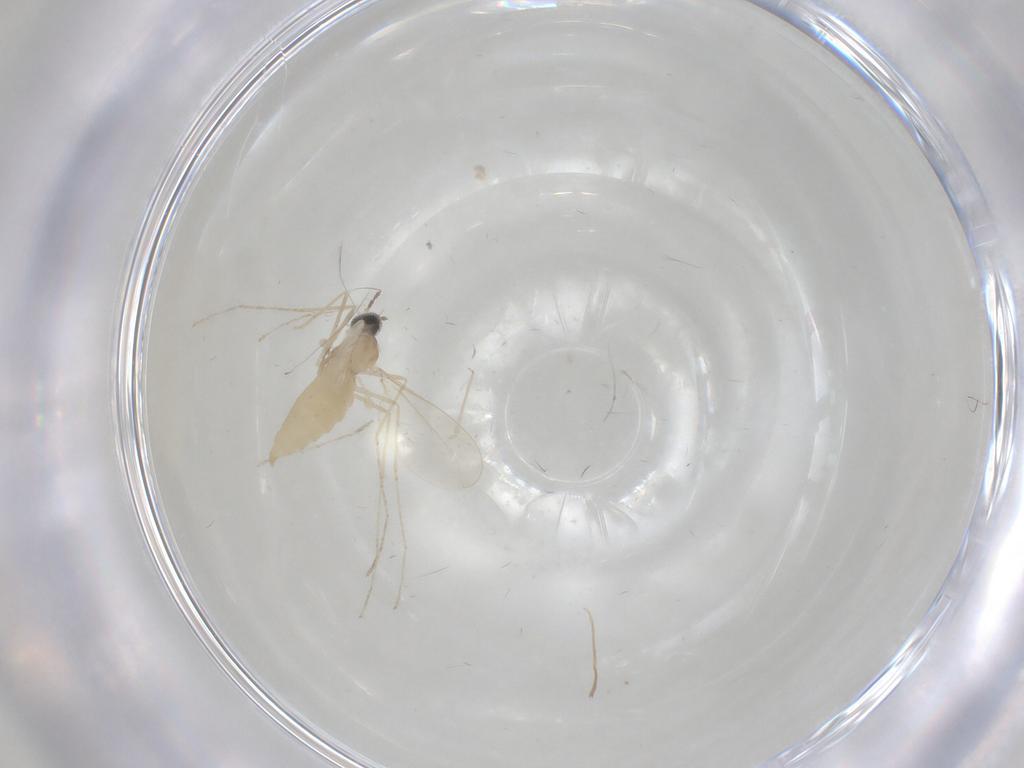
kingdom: Animalia
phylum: Arthropoda
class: Insecta
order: Diptera
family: Cecidomyiidae
